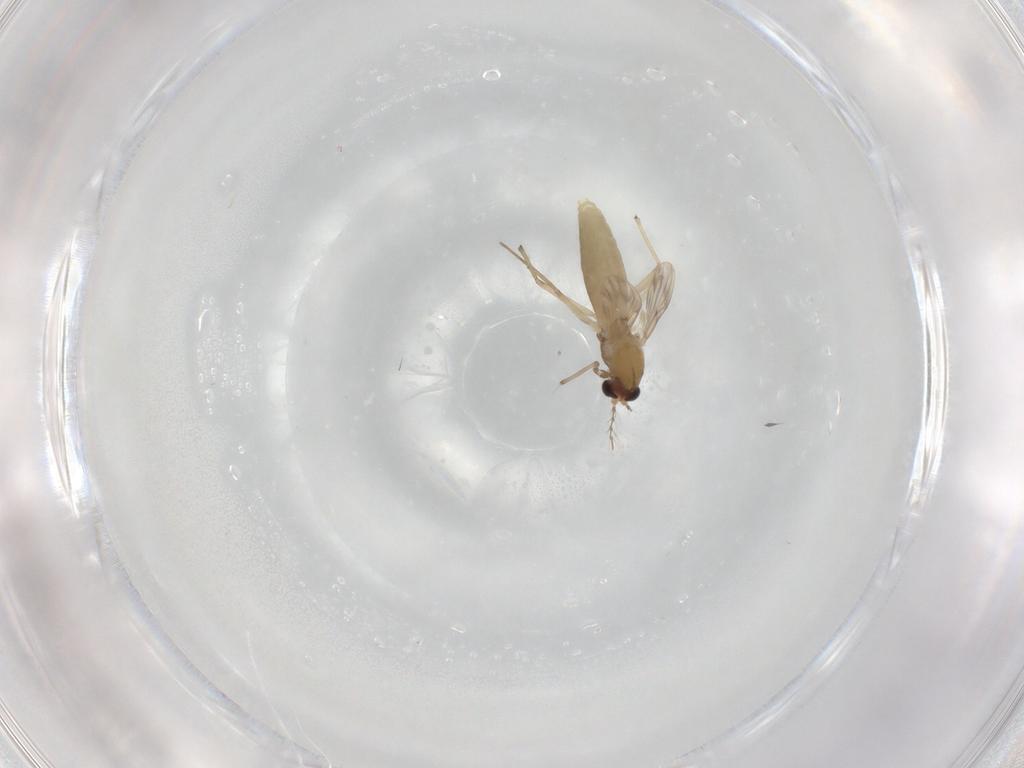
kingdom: Animalia
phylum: Arthropoda
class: Insecta
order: Diptera
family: Chironomidae
